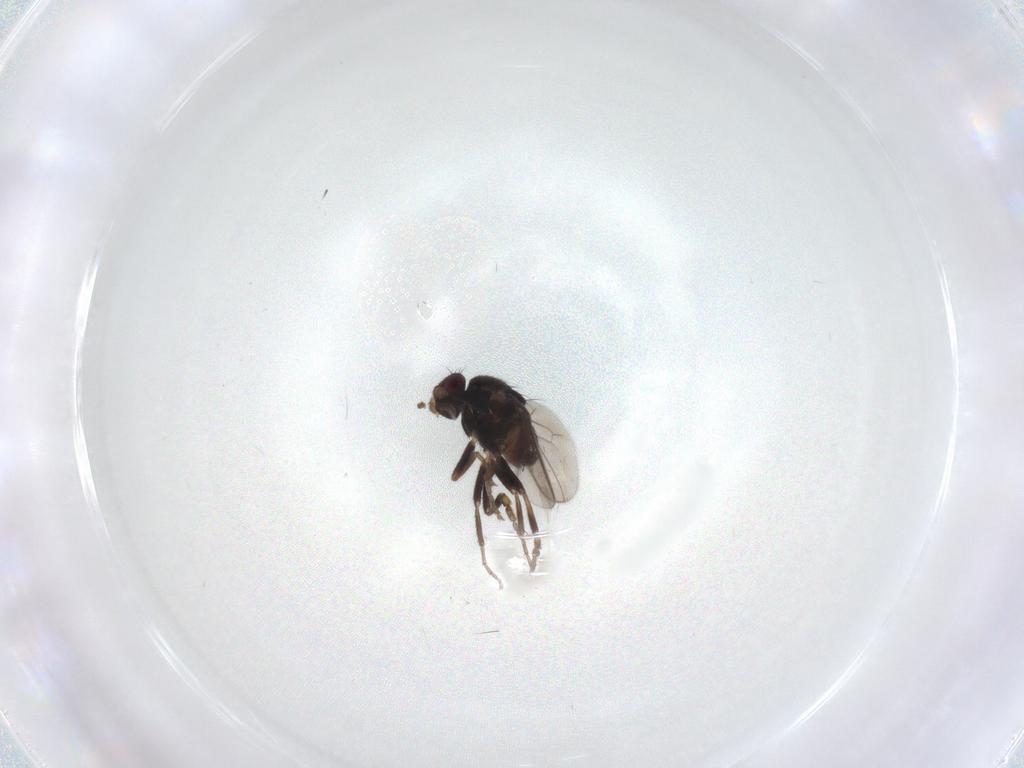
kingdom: Animalia
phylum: Arthropoda
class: Insecta
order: Diptera
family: Sphaeroceridae
